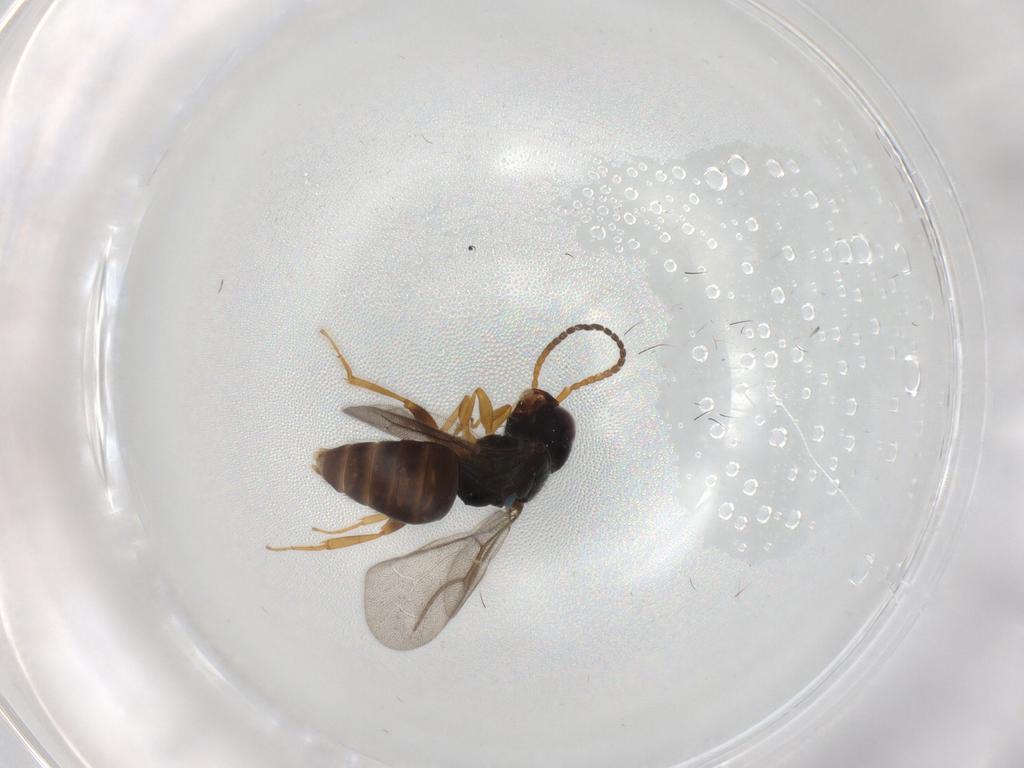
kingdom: Animalia
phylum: Arthropoda
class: Insecta
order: Hymenoptera
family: Bethylidae
